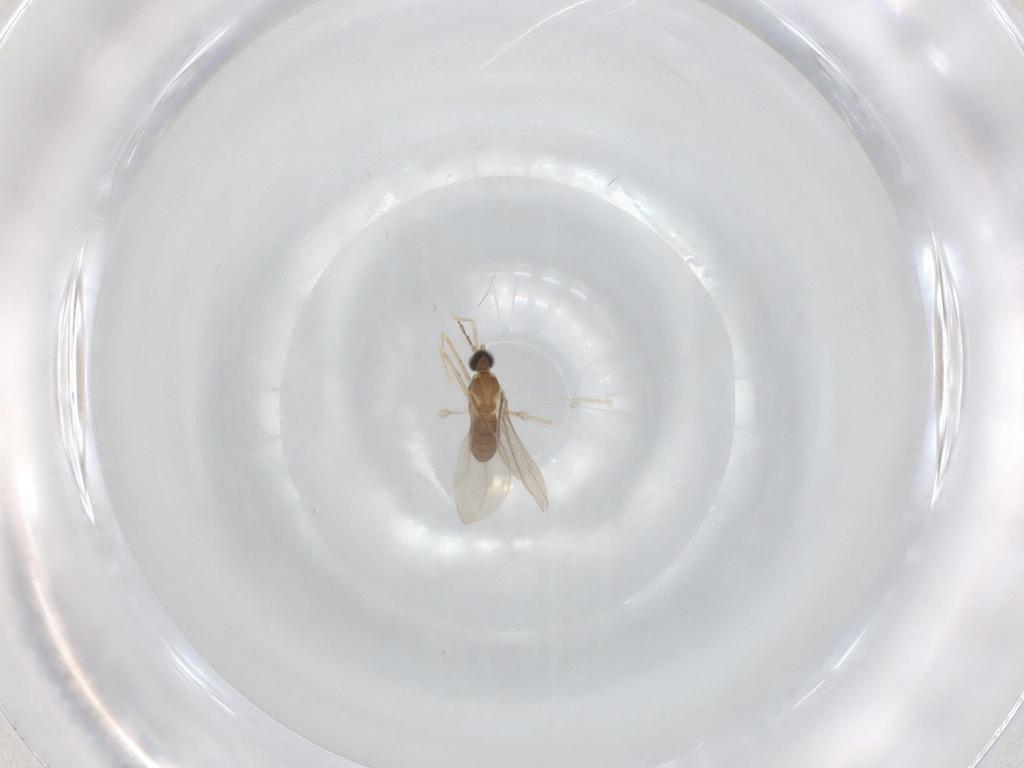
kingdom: Animalia
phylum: Arthropoda
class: Insecta
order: Diptera
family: Cecidomyiidae
